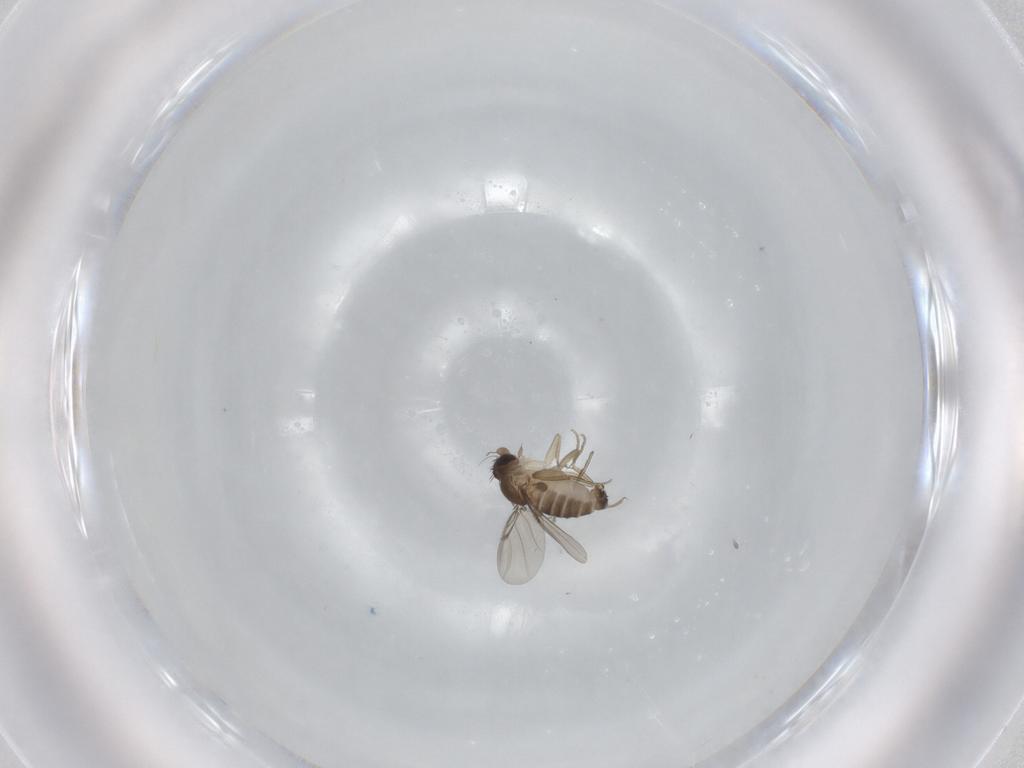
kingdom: Animalia
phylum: Arthropoda
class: Insecta
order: Diptera
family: Phoridae
